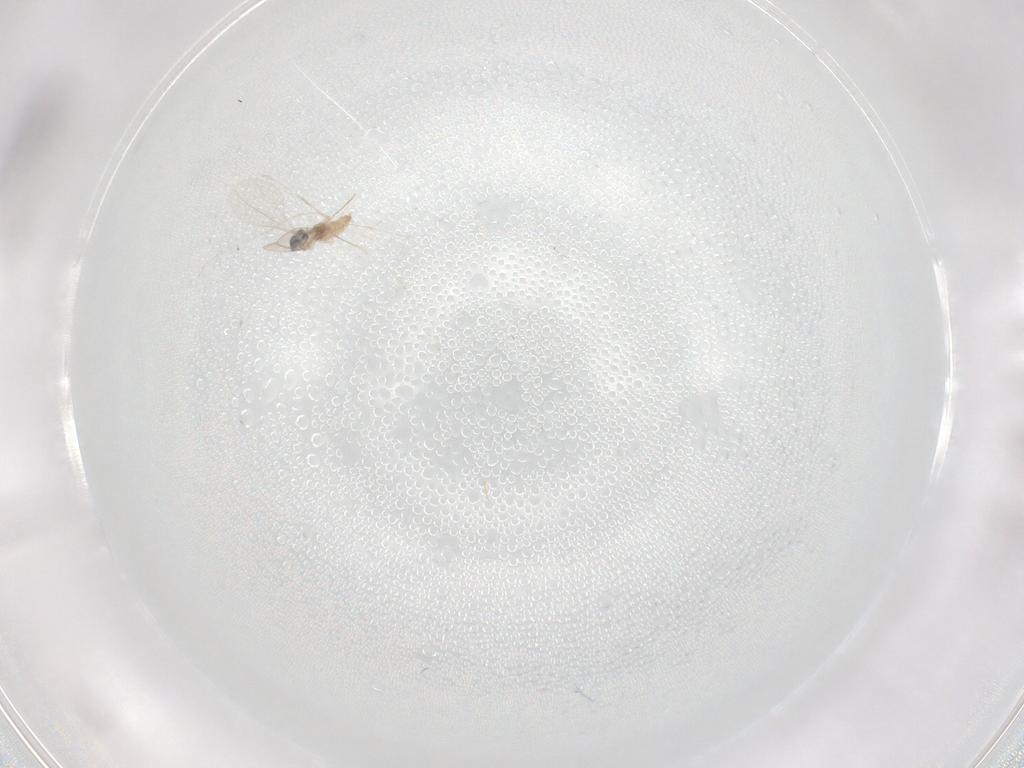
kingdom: Animalia
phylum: Arthropoda
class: Insecta
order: Diptera
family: Cecidomyiidae
